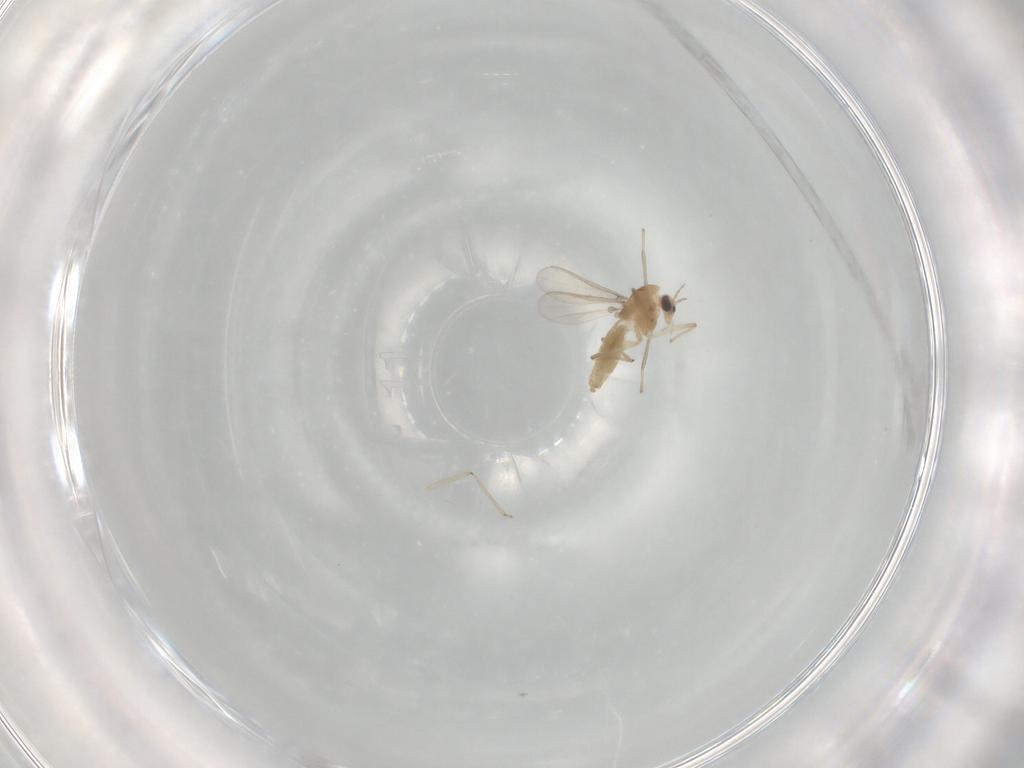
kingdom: Animalia
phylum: Arthropoda
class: Insecta
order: Diptera
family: Chironomidae
